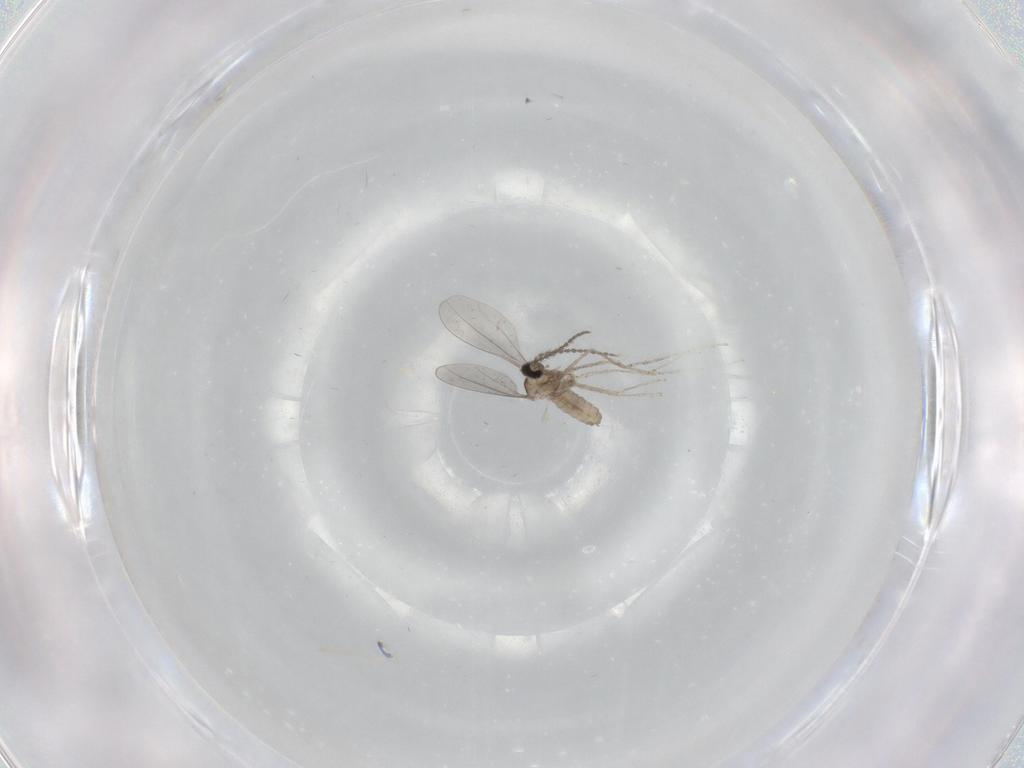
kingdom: Animalia
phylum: Arthropoda
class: Insecta
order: Diptera
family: Cecidomyiidae
